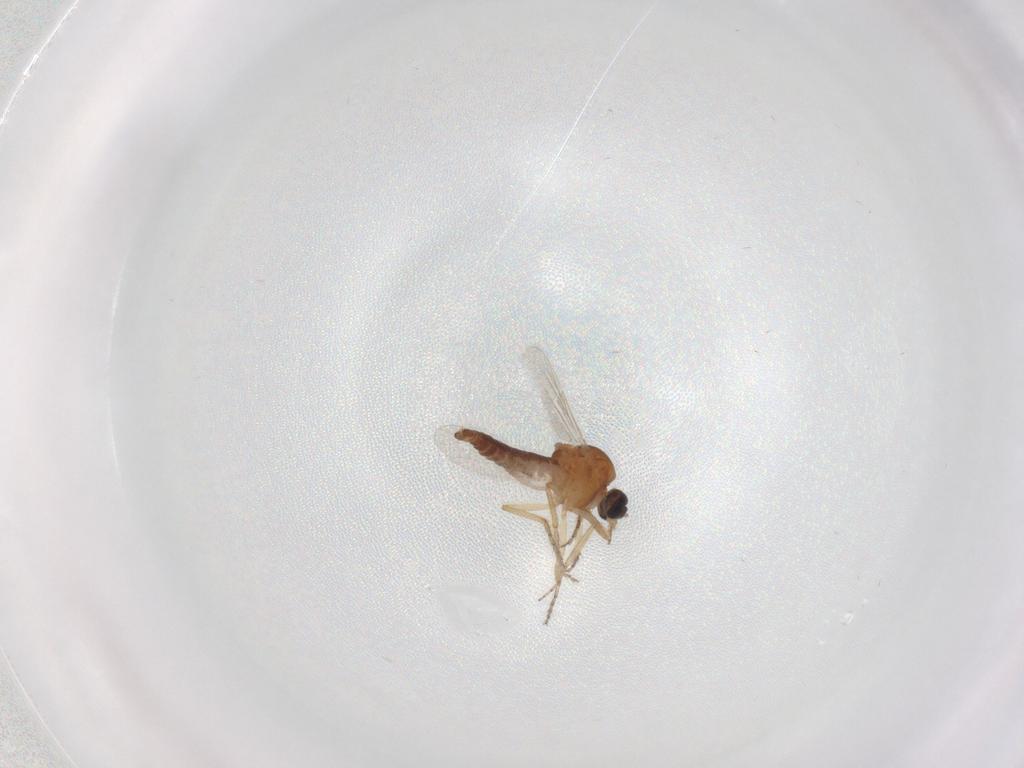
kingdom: Animalia
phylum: Arthropoda
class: Insecta
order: Diptera
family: Ceratopogonidae
